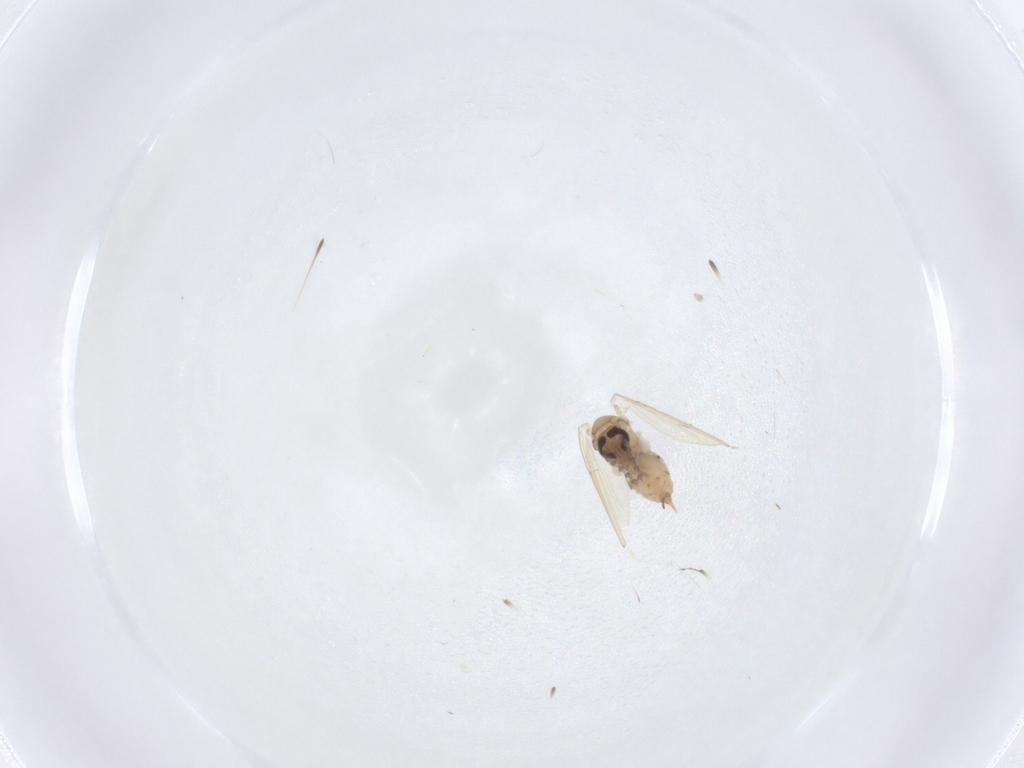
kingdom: Animalia
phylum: Arthropoda
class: Insecta
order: Diptera
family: Psychodidae
